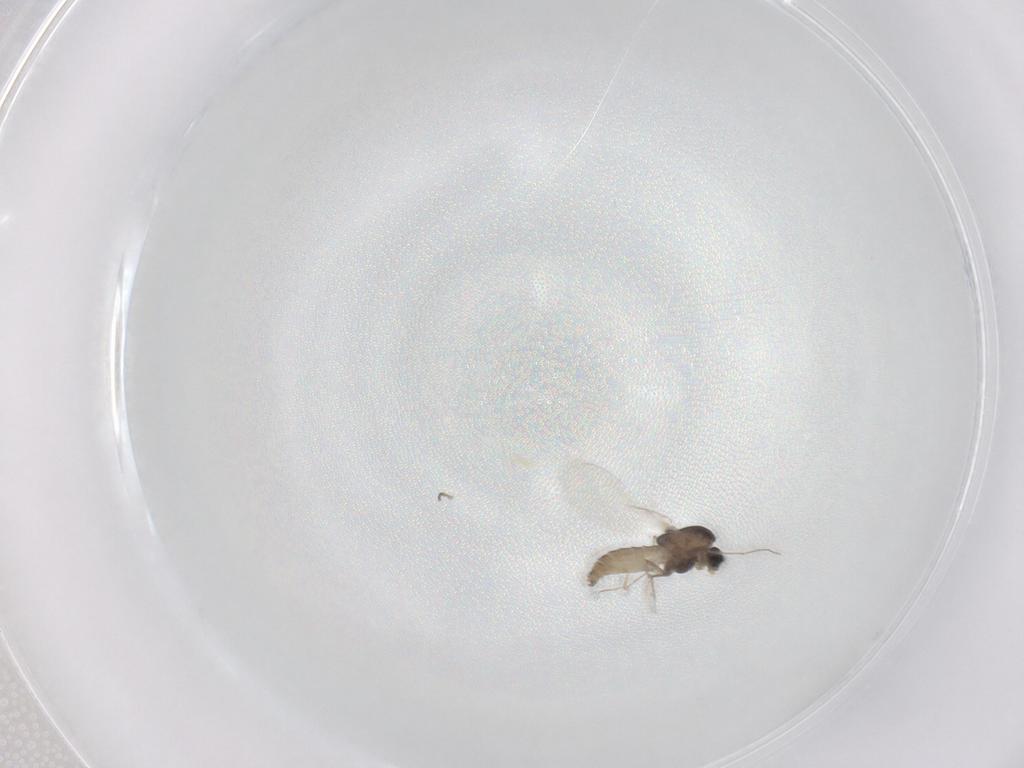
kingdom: Animalia
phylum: Arthropoda
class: Insecta
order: Diptera
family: Chironomidae
